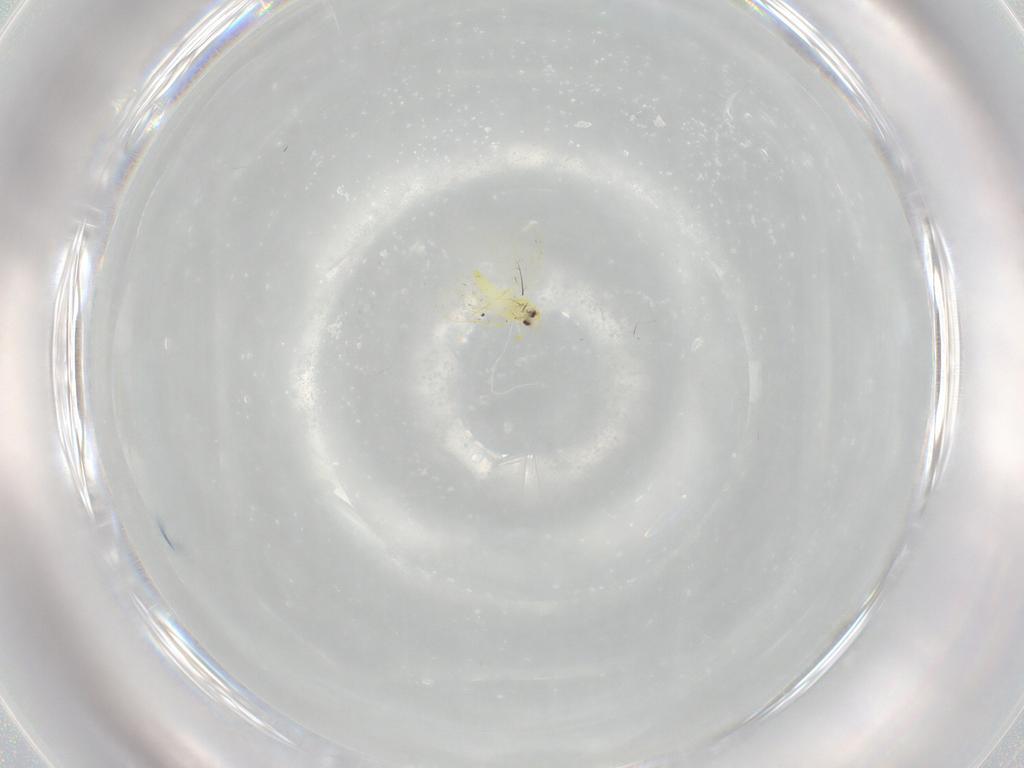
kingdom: Animalia
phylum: Arthropoda
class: Insecta
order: Hemiptera
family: Aleyrodidae
